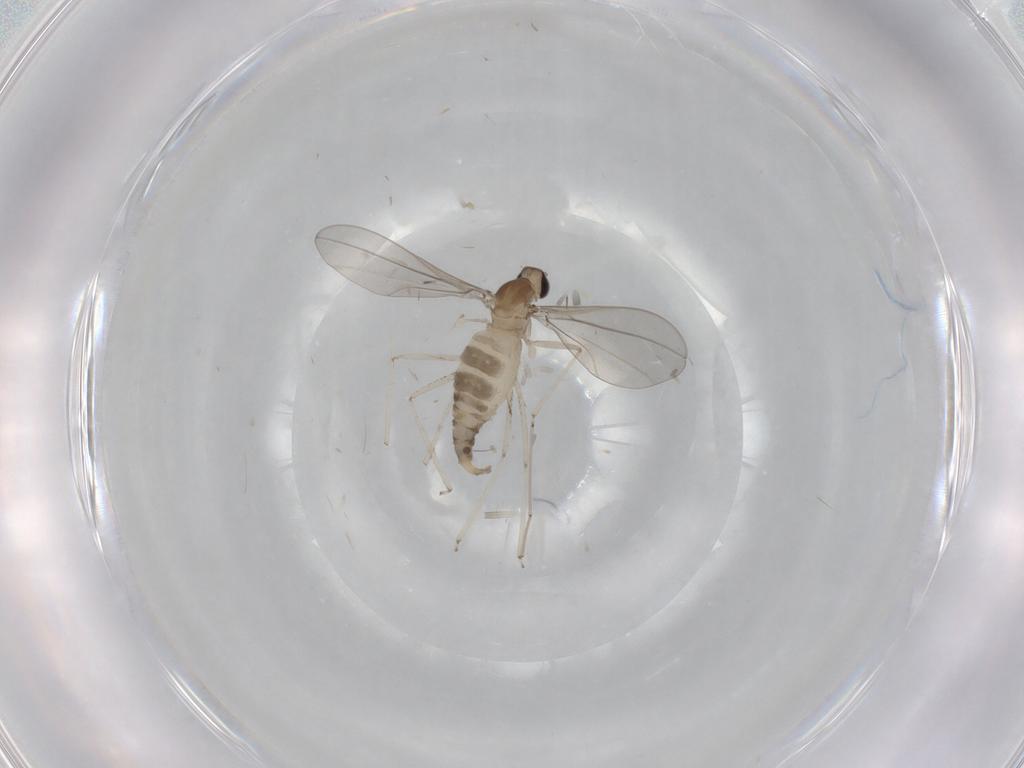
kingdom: Animalia
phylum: Arthropoda
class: Insecta
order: Diptera
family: Cecidomyiidae
